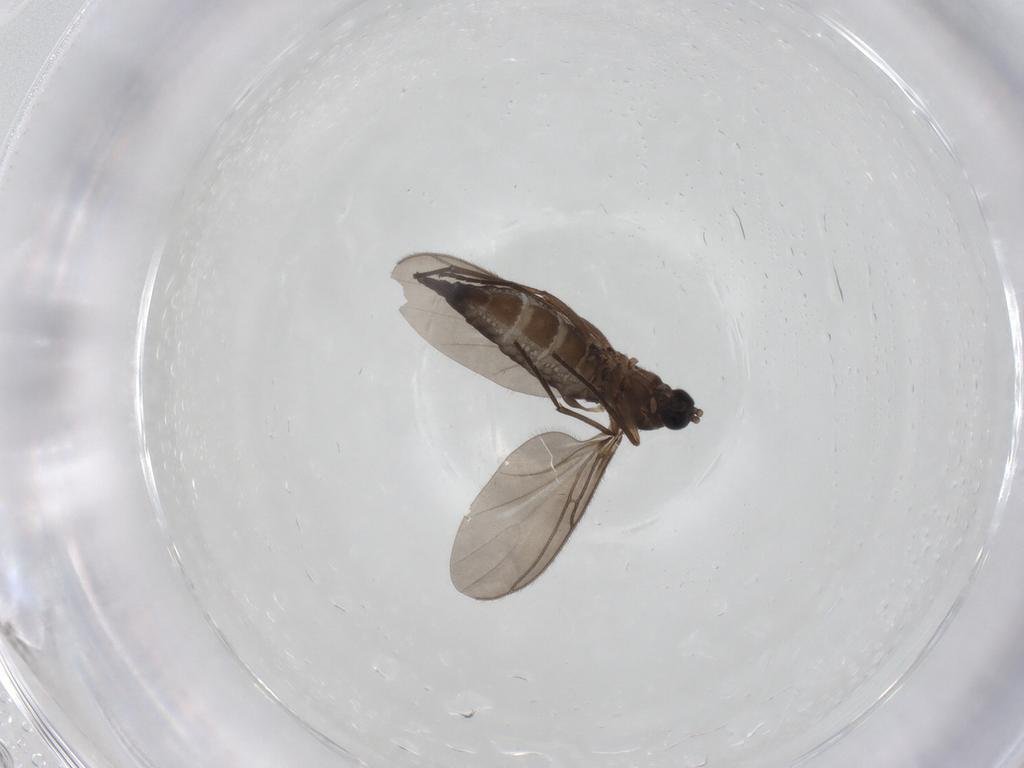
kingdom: Animalia
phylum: Arthropoda
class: Insecta
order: Diptera
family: Sciaridae
